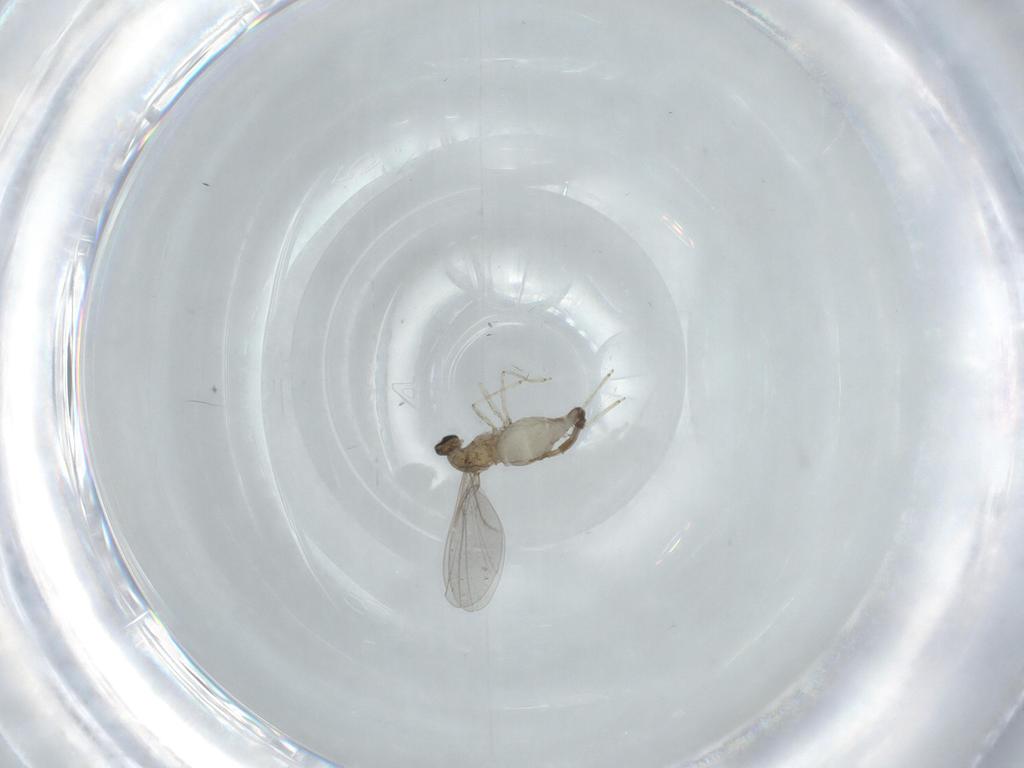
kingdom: Animalia
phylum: Arthropoda
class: Insecta
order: Diptera
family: Cecidomyiidae
